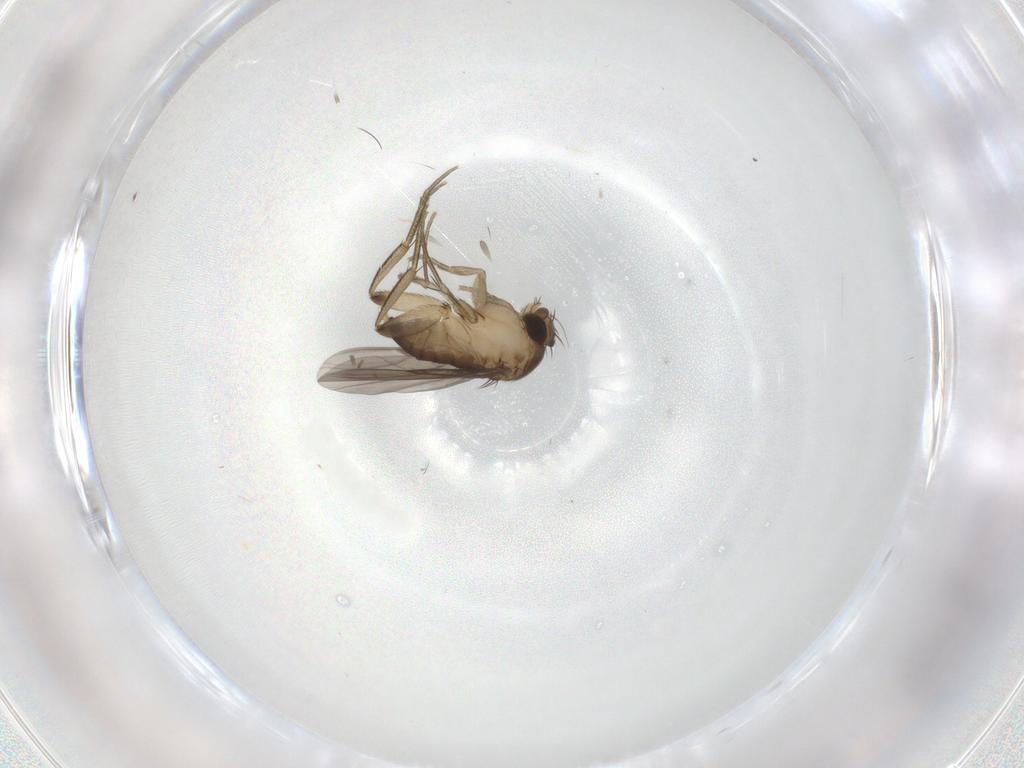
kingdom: Animalia
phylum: Arthropoda
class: Insecta
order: Diptera
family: Phoridae
